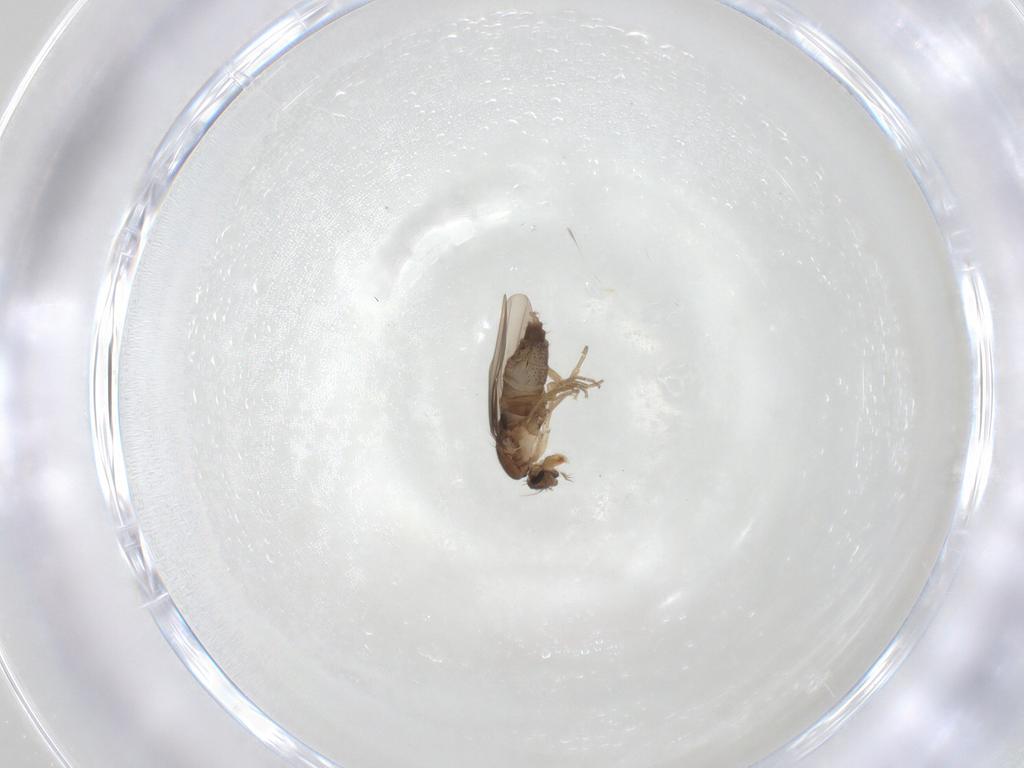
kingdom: Animalia
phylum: Arthropoda
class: Insecta
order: Diptera
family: Phoridae
